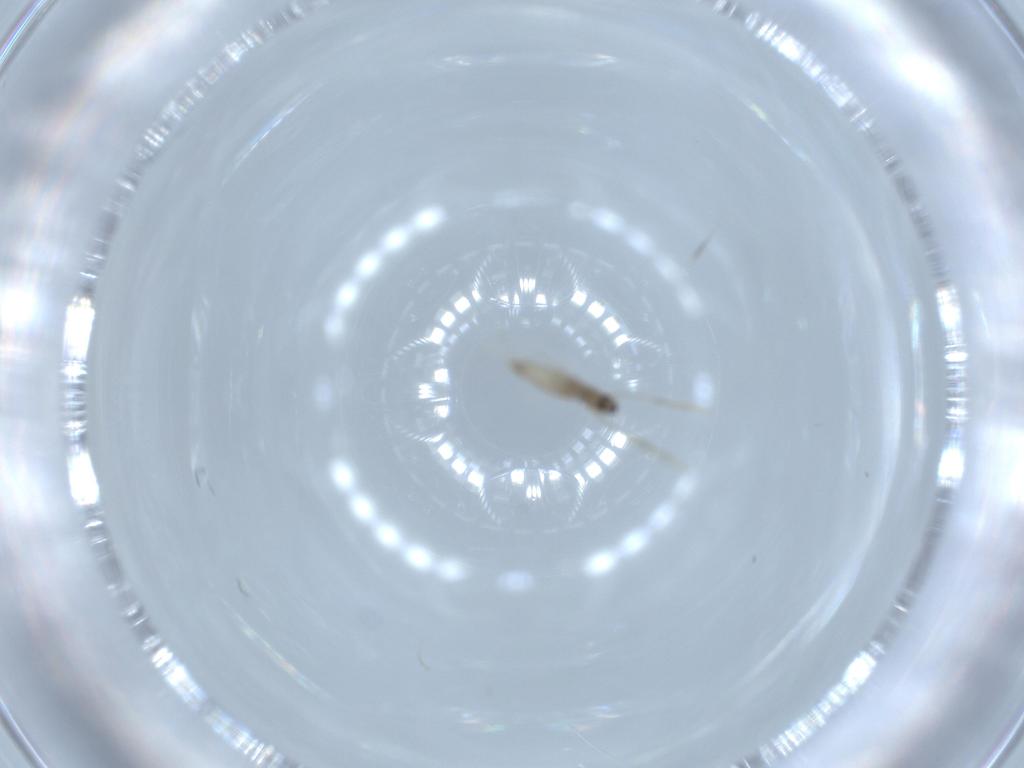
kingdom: Animalia
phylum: Arthropoda
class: Insecta
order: Diptera
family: Cecidomyiidae
